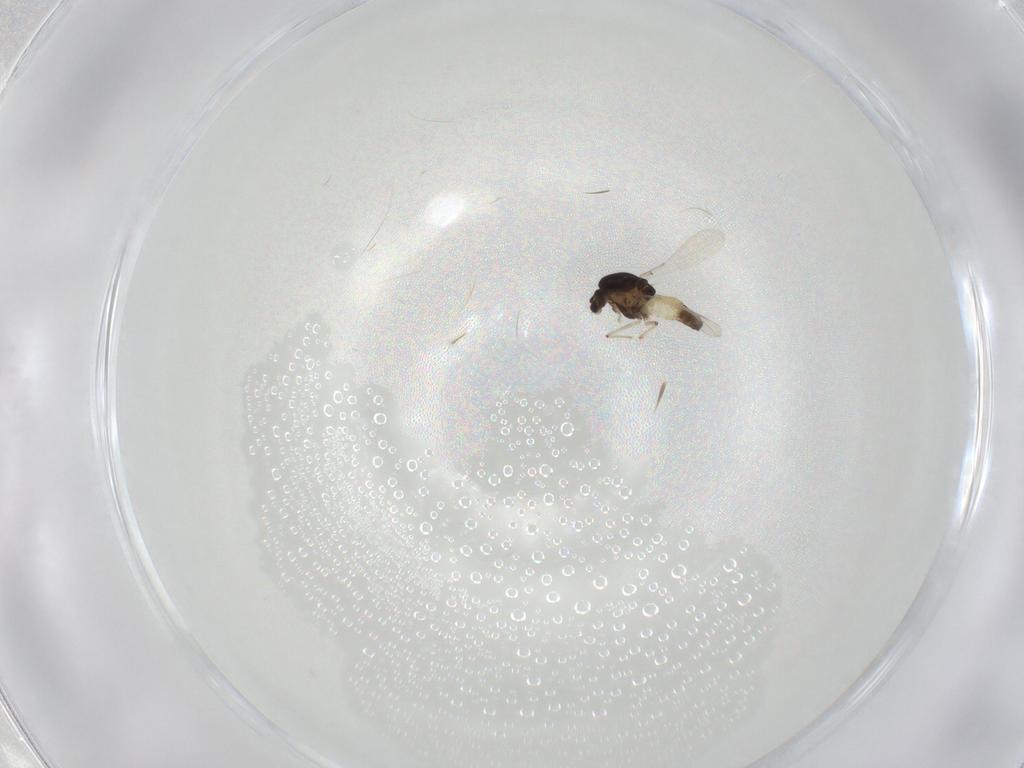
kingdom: Animalia
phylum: Arthropoda
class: Insecta
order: Diptera
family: Chironomidae
